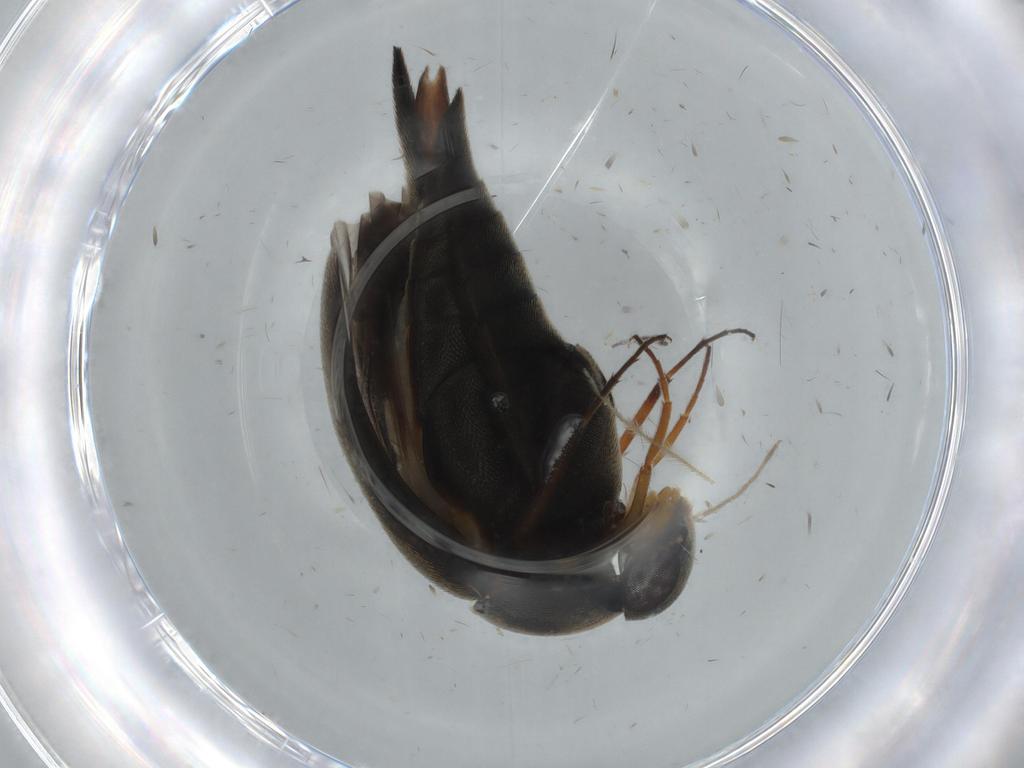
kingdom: Animalia
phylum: Arthropoda
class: Insecta
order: Coleoptera
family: Mordellidae
